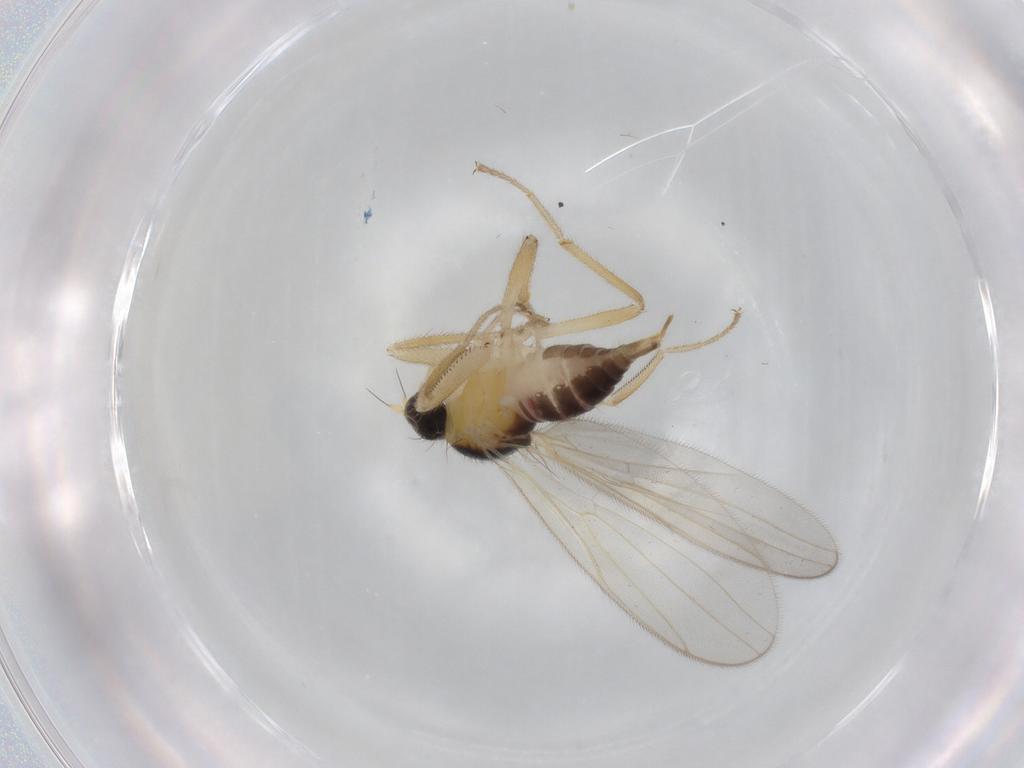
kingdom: Animalia
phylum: Arthropoda
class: Insecta
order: Diptera
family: Hybotidae
